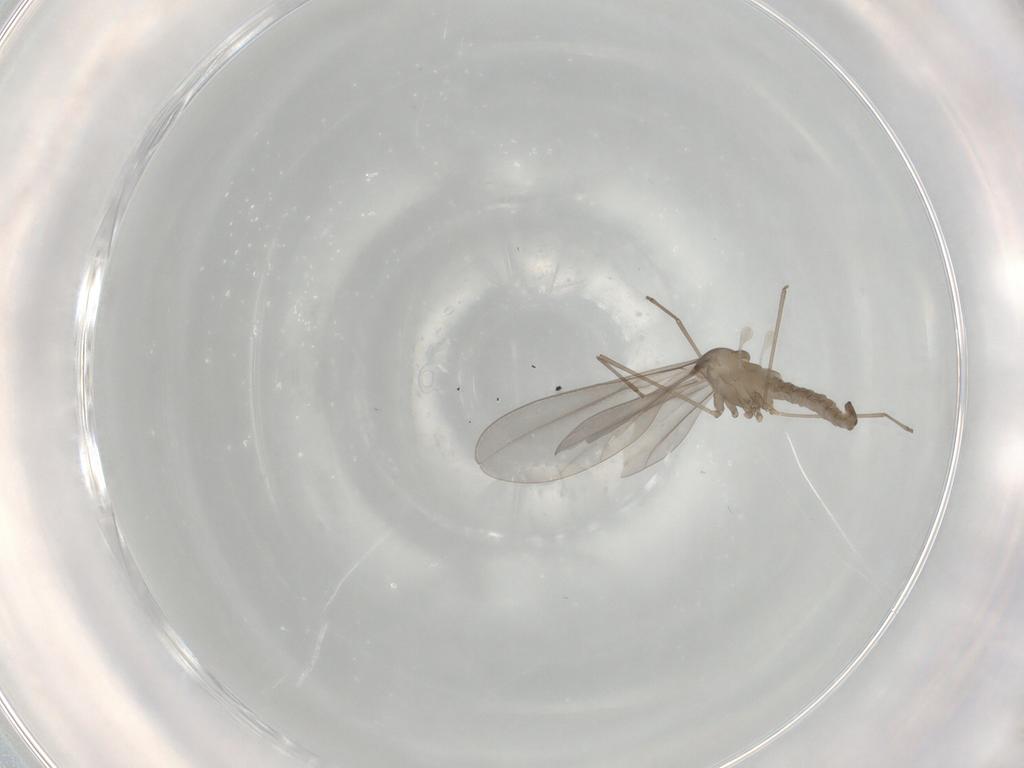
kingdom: Animalia
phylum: Arthropoda
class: Insecta
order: Diptera
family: Cecidomyiidae
